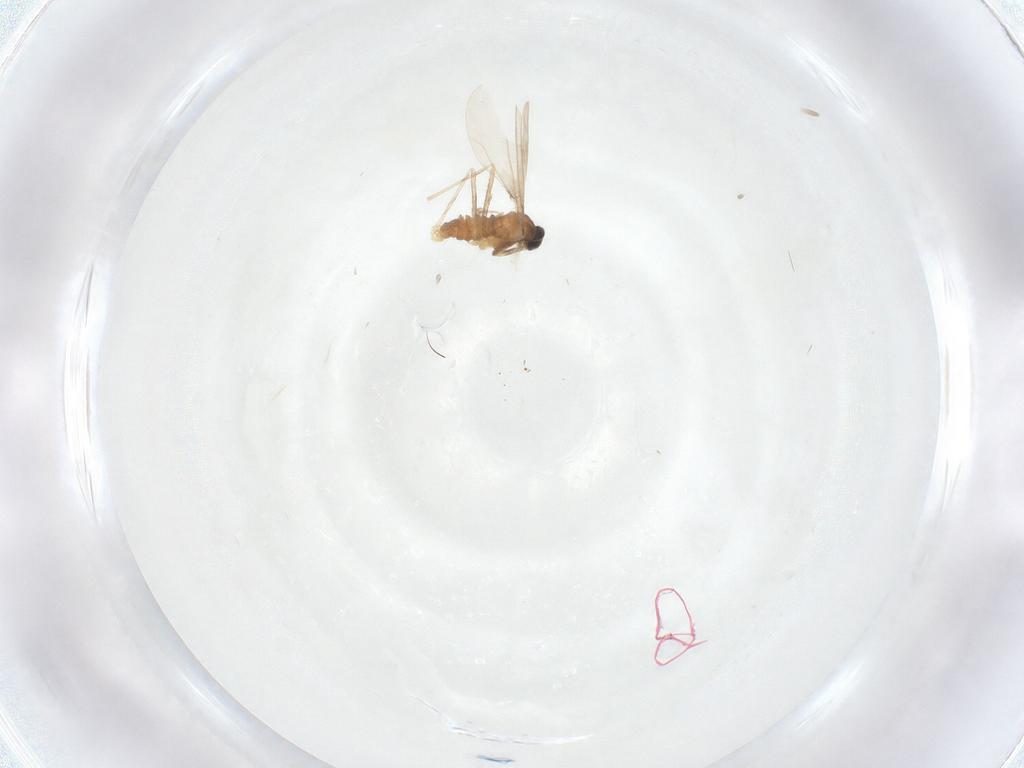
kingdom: Animalia
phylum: Arthropoda
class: Insecta
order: Diptera
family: Cecidomyiidae
